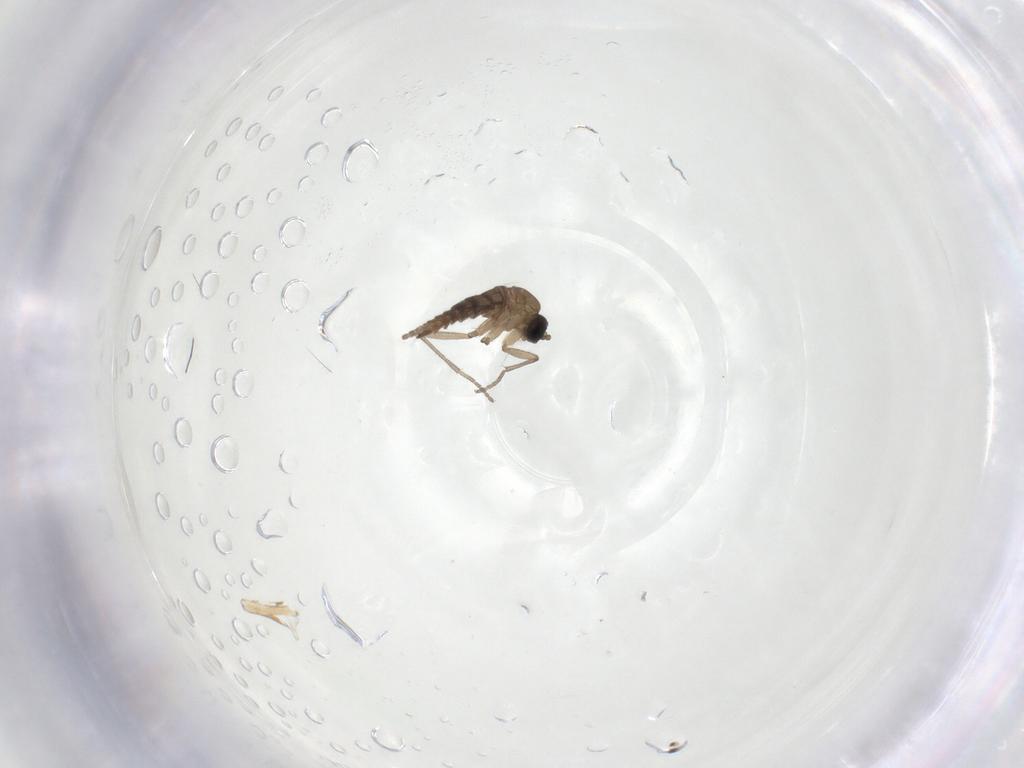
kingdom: Animalia
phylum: Arthropoda
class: Insecta
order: Diptera
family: Sciaridae
